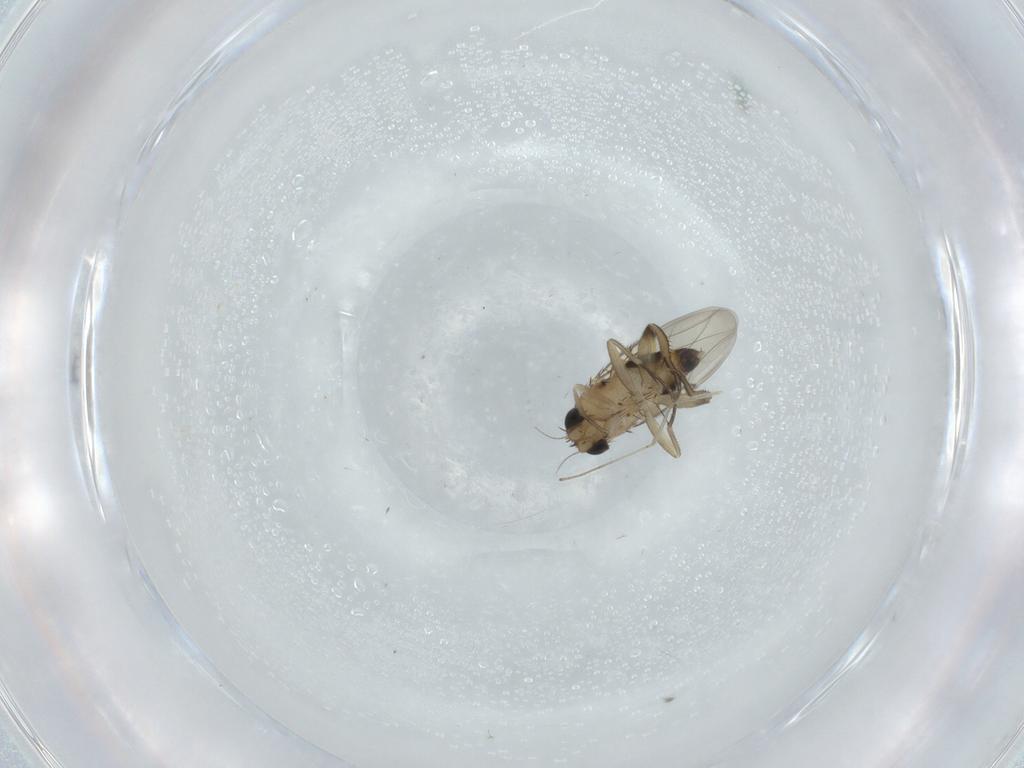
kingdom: Animalia
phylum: Arthropoda
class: Insecta
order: Diptera
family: Phoridae
